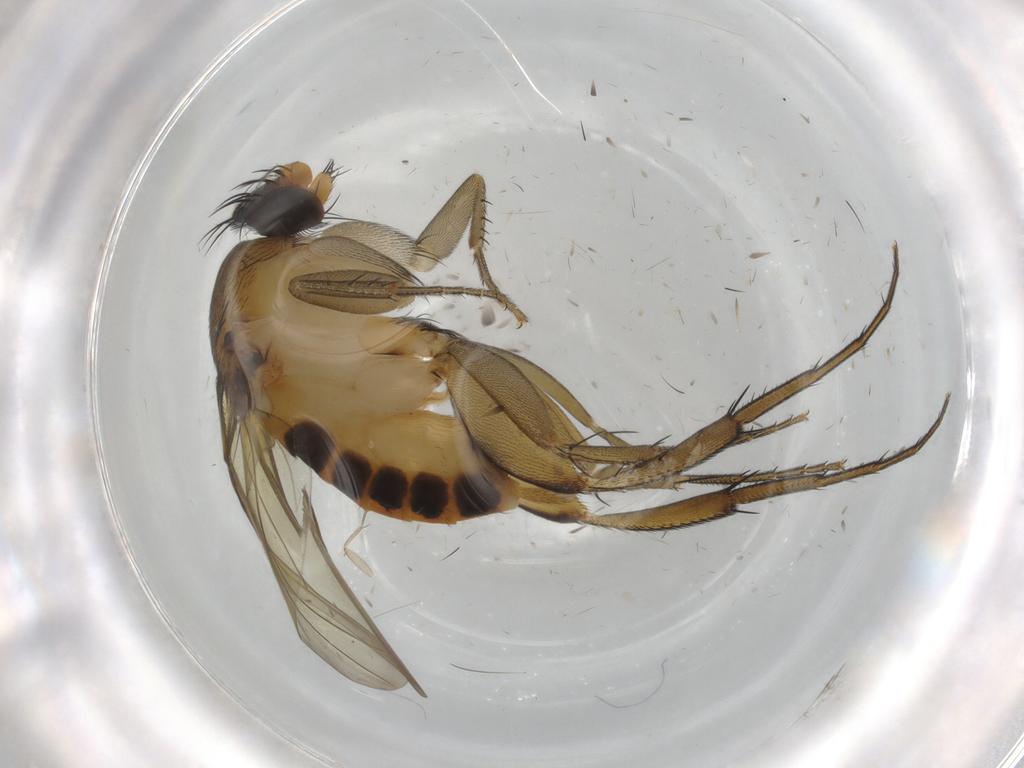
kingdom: Animalia
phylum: Arthropoda
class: Insecta
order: Diptera
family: Phoridae
